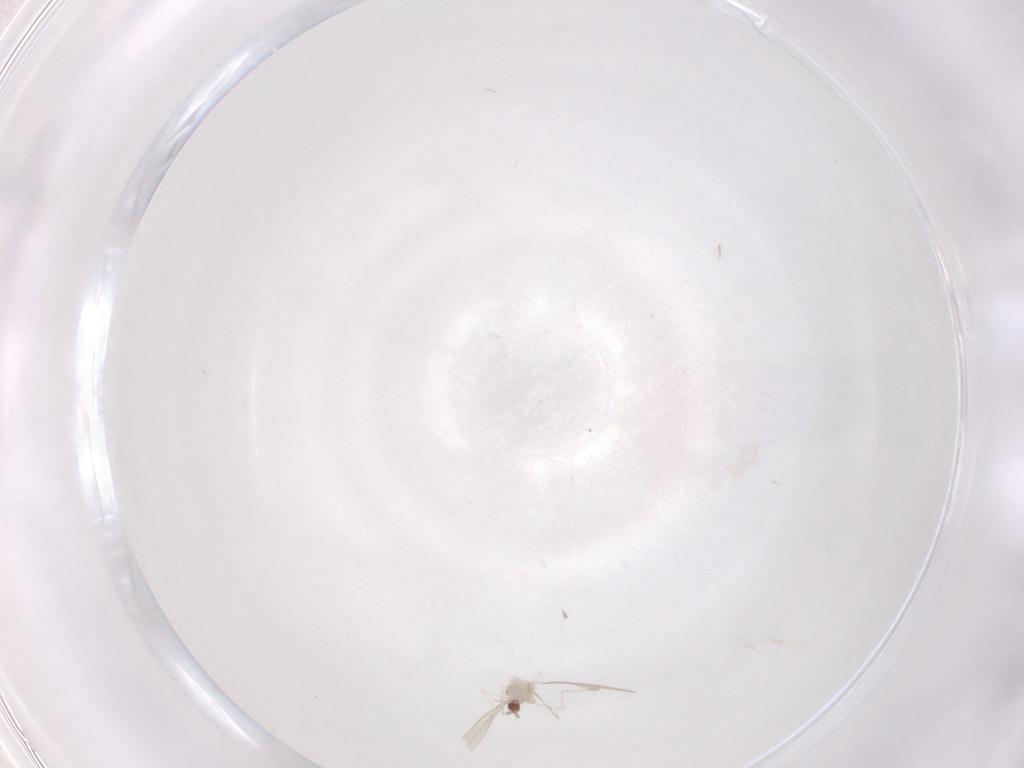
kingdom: Animalia
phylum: Arthropoda
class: Insecta
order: Diptera
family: Cecidomyiidae
